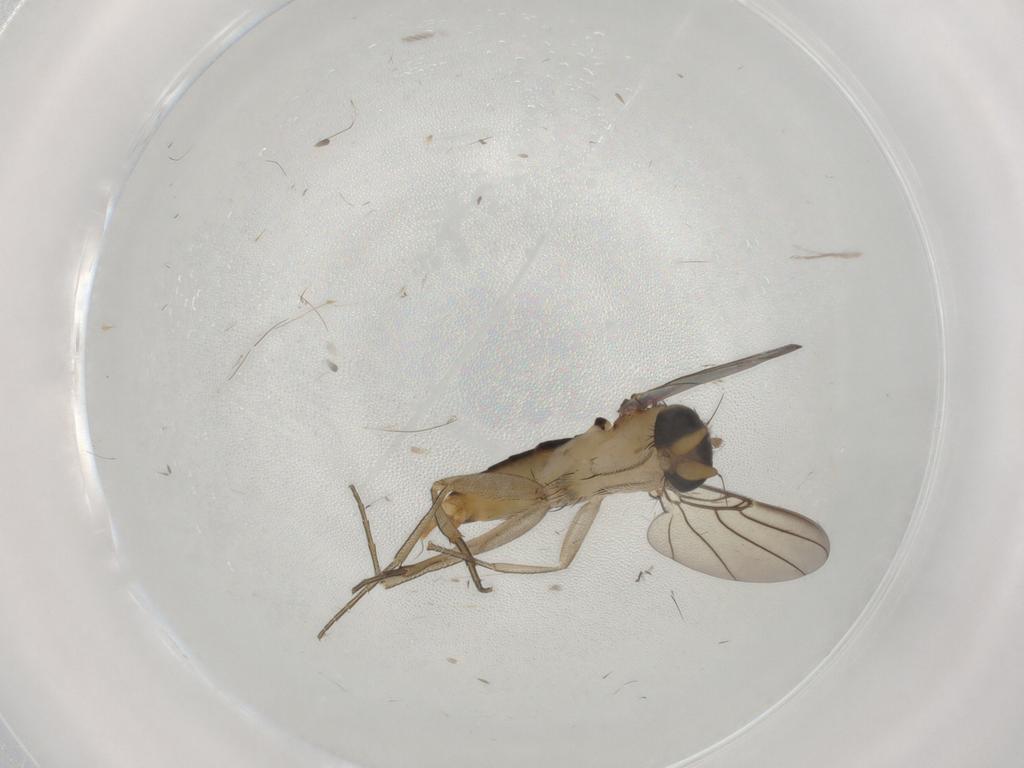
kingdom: Animalia
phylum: Arthropoda
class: Insecta
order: Diptera
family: Phoridae
